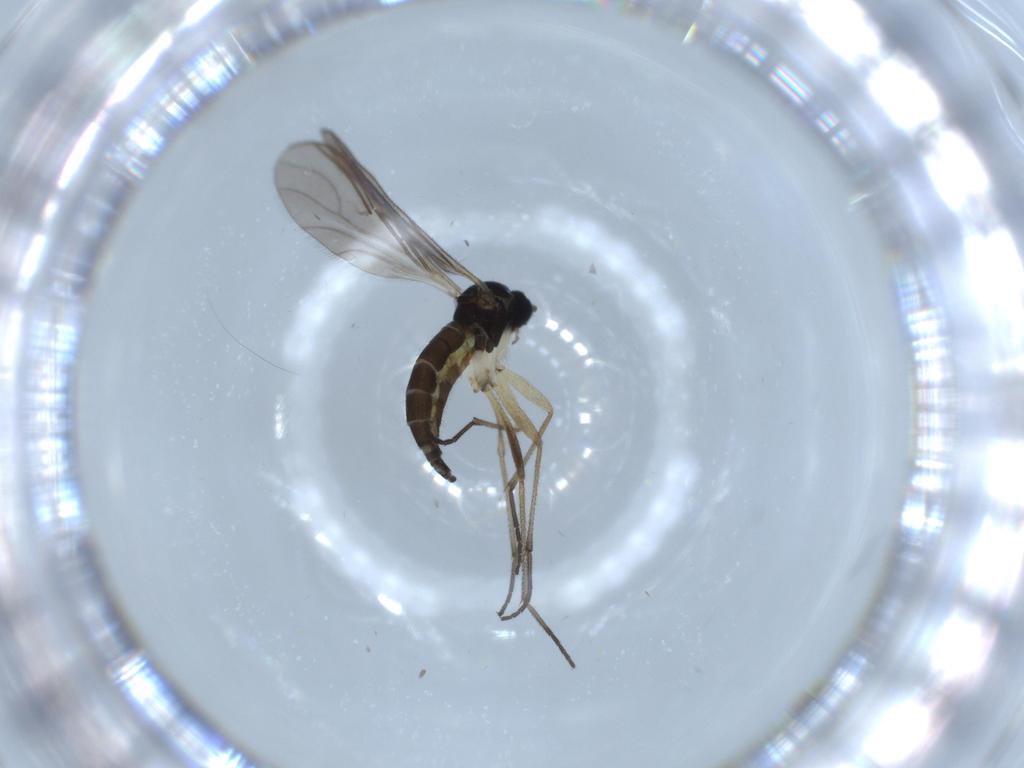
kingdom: Animalia
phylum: Arthropoda
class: Insecta
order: Diptera
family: Sciaridae
